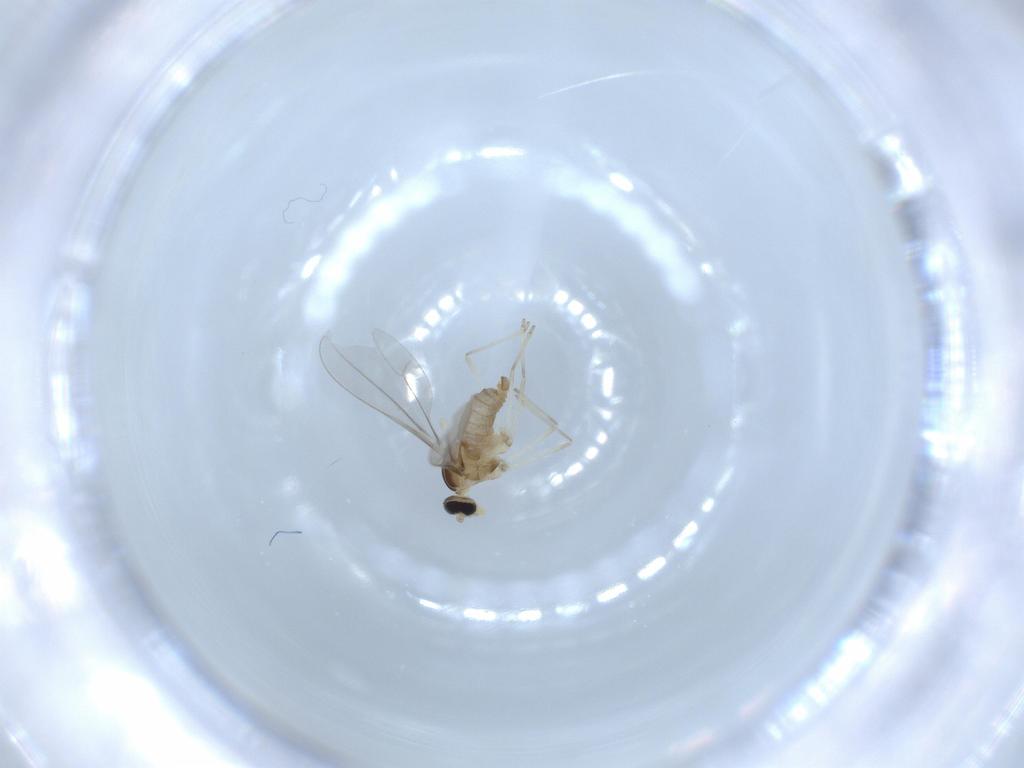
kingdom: Animalia
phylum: Arthropoda
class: Insecta
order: Diptera
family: Cecidomyiidae
